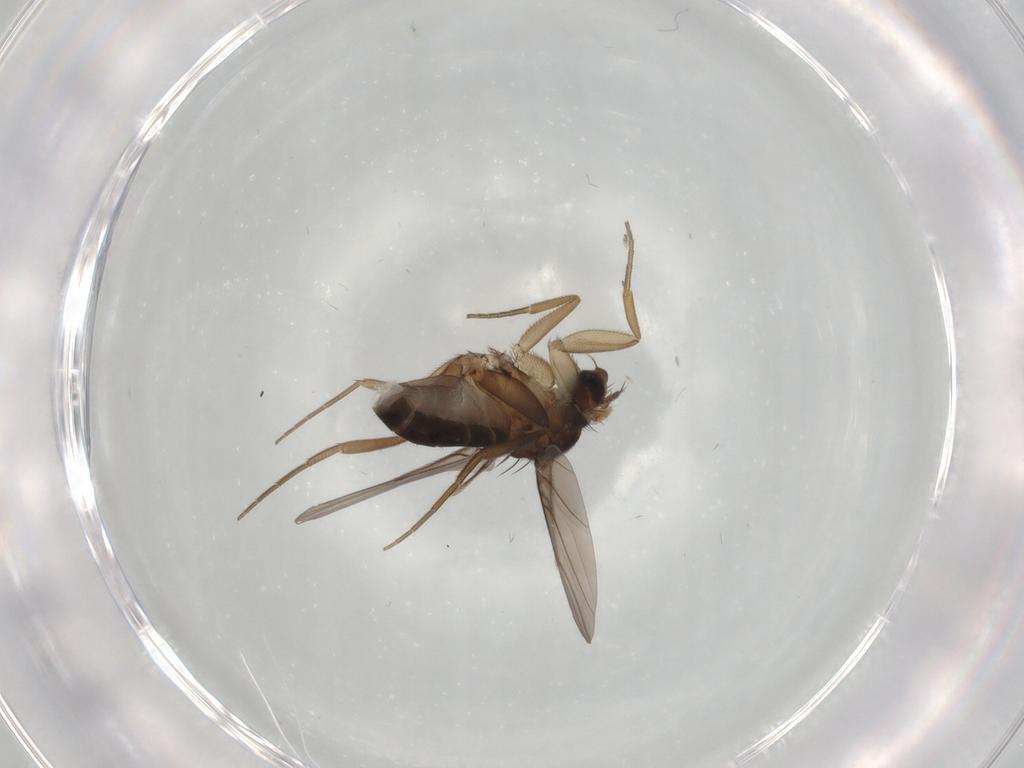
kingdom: Animalia
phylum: Arthropoda
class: Insecta
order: Diptera
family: Phoridae
